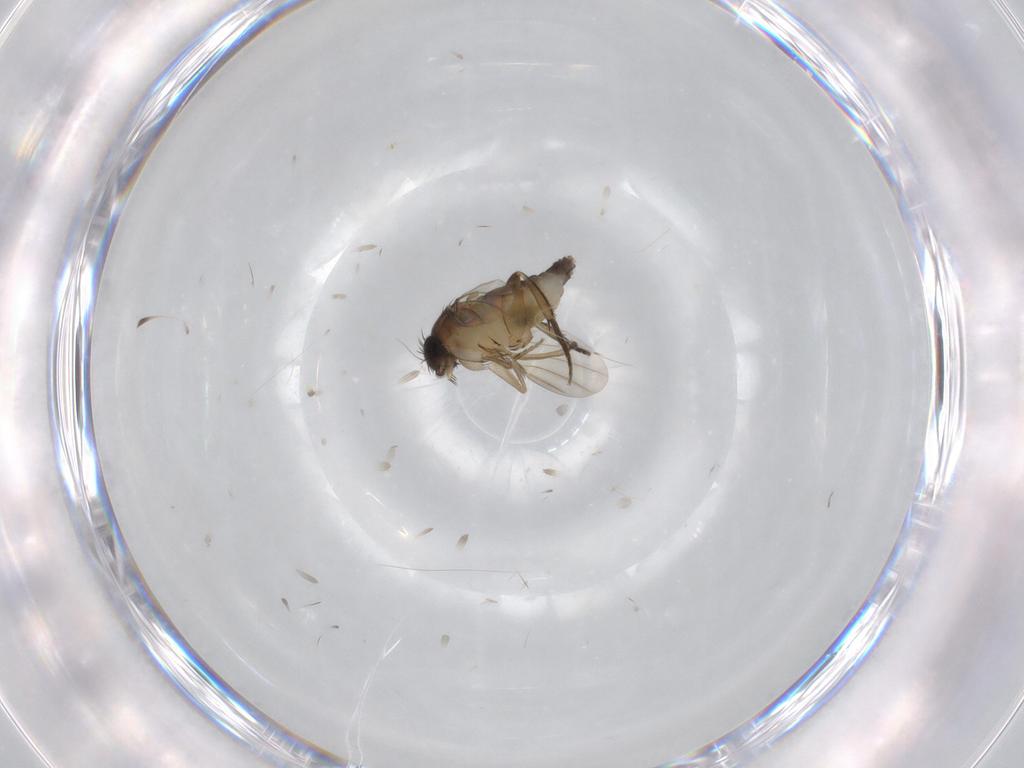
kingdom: Animalia
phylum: Arthropoda
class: Insecta
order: Diptera
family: Phoridae
